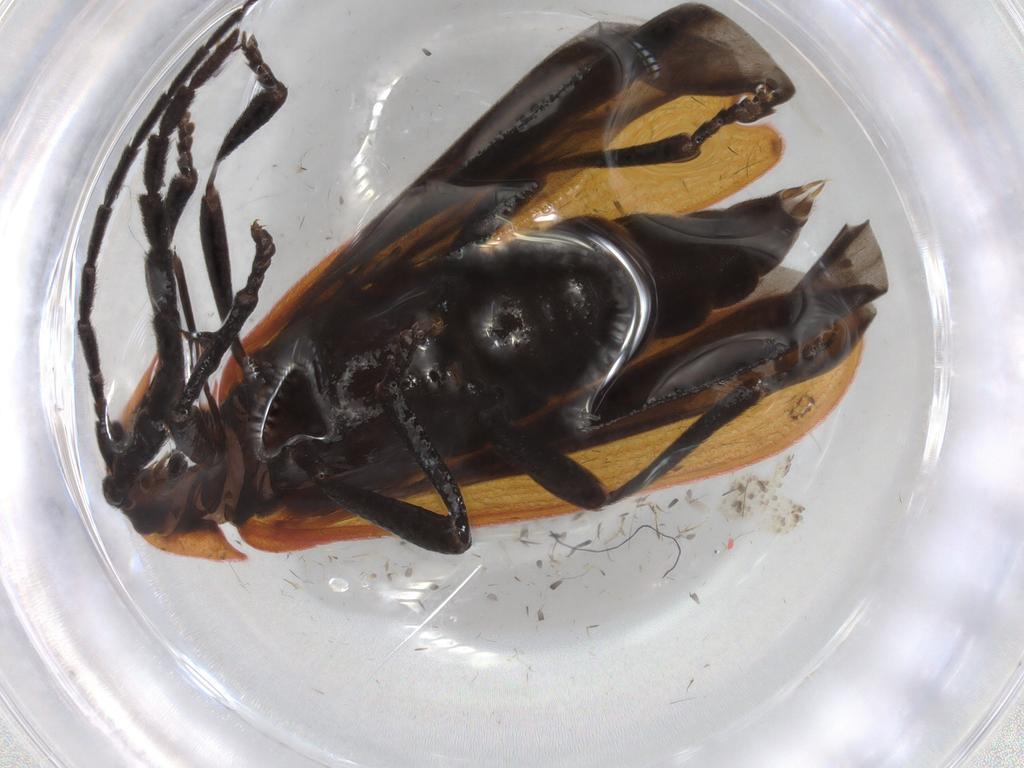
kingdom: Animalia
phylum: Arthropoda
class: Insecta
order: Coleoptera
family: Lycidae
